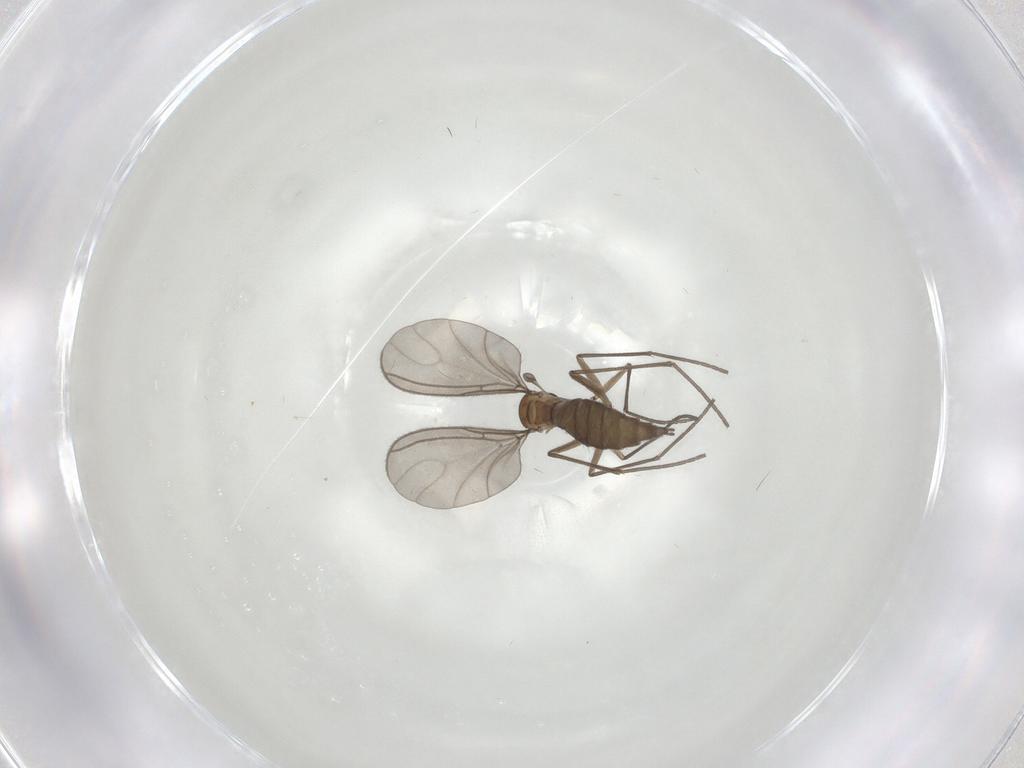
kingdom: Animalia
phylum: Arthropoda
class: Insecta
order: Diptera
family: Sciaridae
